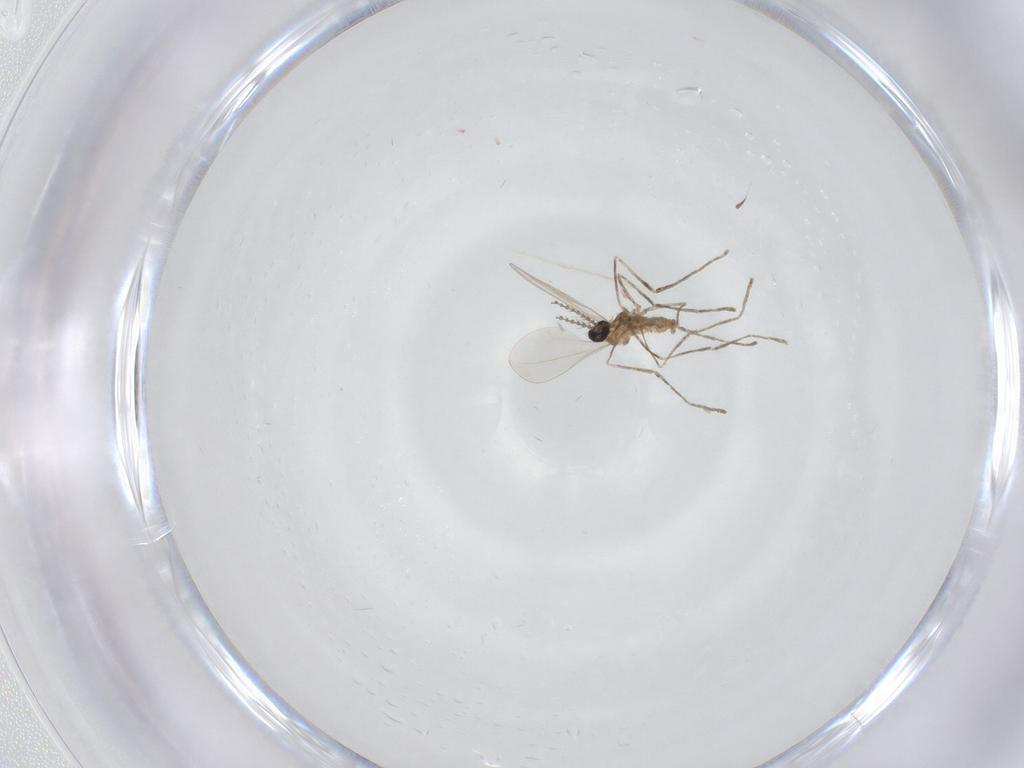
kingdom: Animalia
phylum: Arthropoda
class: Insecta
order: Diptera
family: Cecidomyiidae
